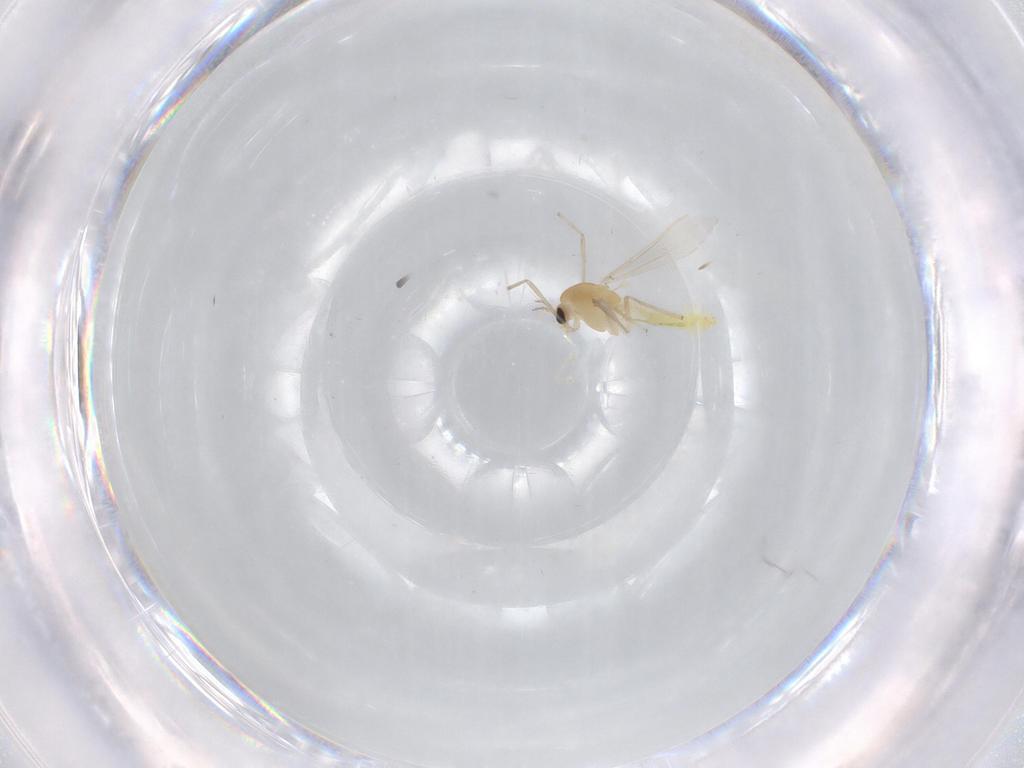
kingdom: Animalia
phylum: Arthropoda
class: Insecta
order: Diptera
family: Chironomidae
